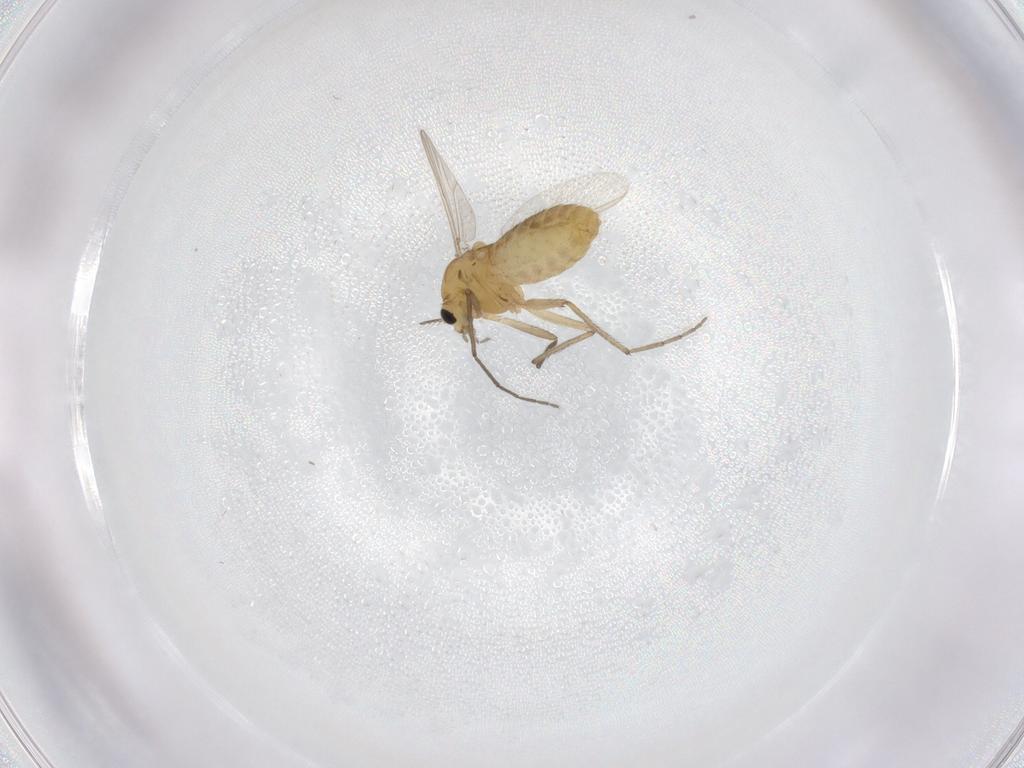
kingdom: Animalia
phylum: Arthropoda
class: Insecta
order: Diptera
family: Chironomidae
